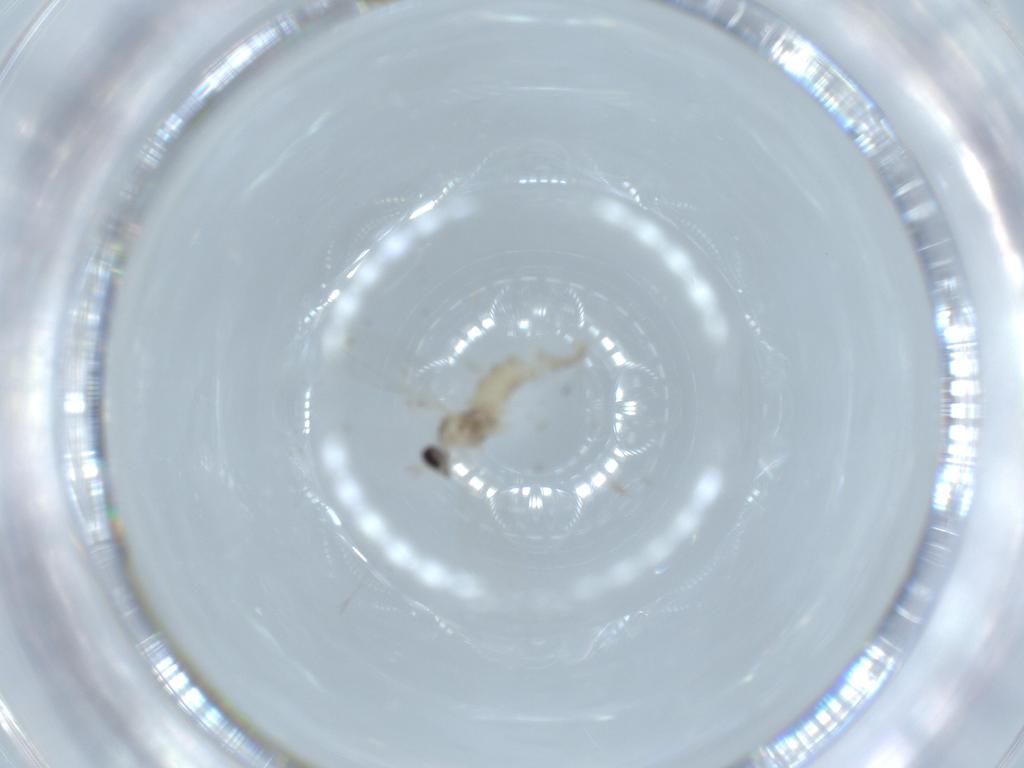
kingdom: Animalia
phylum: Arthropoda
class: Insecta
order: Diptera
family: Cecidomyiidae
